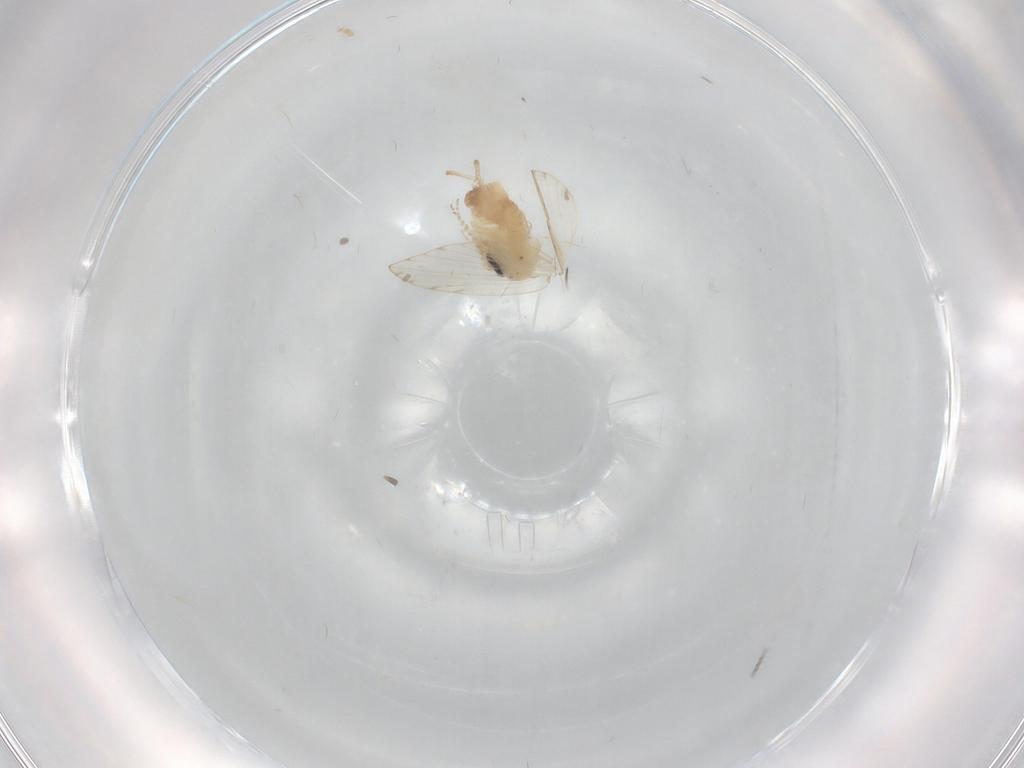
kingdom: Animalia
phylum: Arthropoda
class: Insecta
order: Diptera
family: Psychodidae
